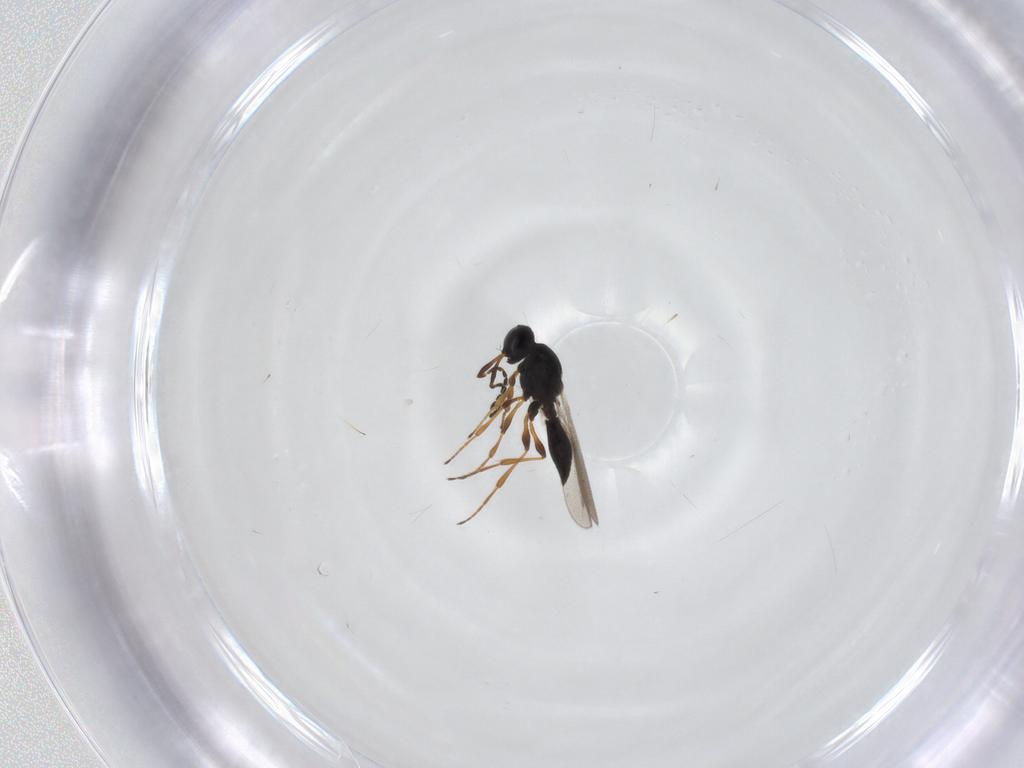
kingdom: Animalia
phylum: Arthropoda
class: Insecta
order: Hymenoptera
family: Platygastridae
